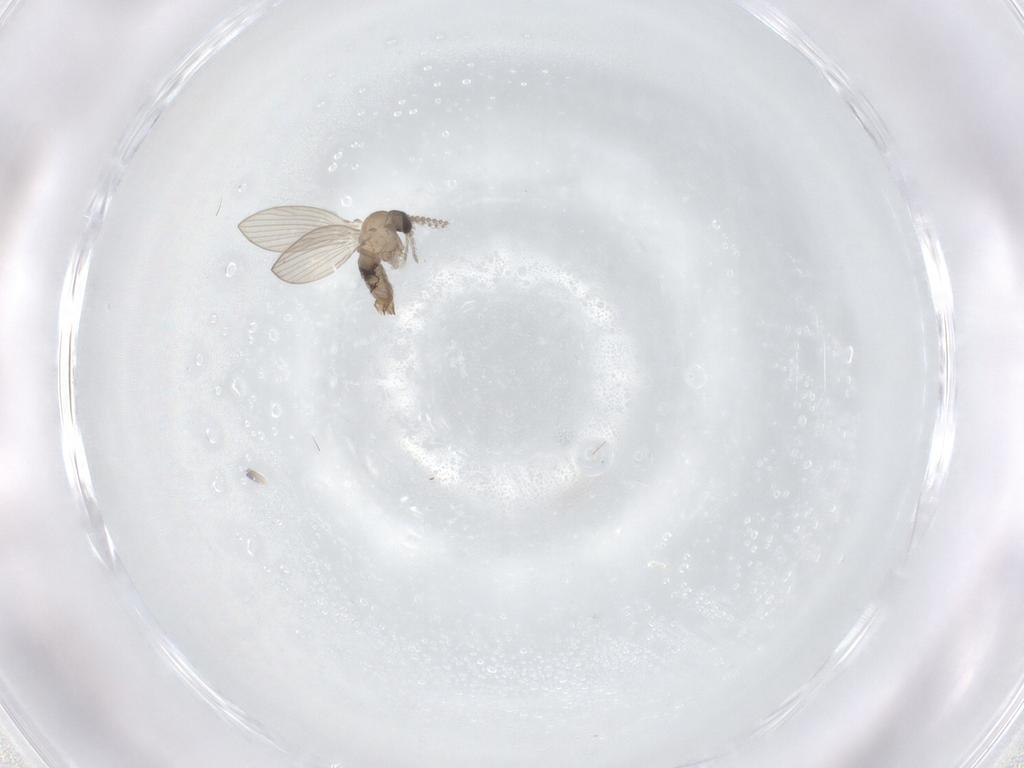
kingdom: Animalia
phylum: Arthropoda
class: Insecta
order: Diptera
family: Psychodidae
